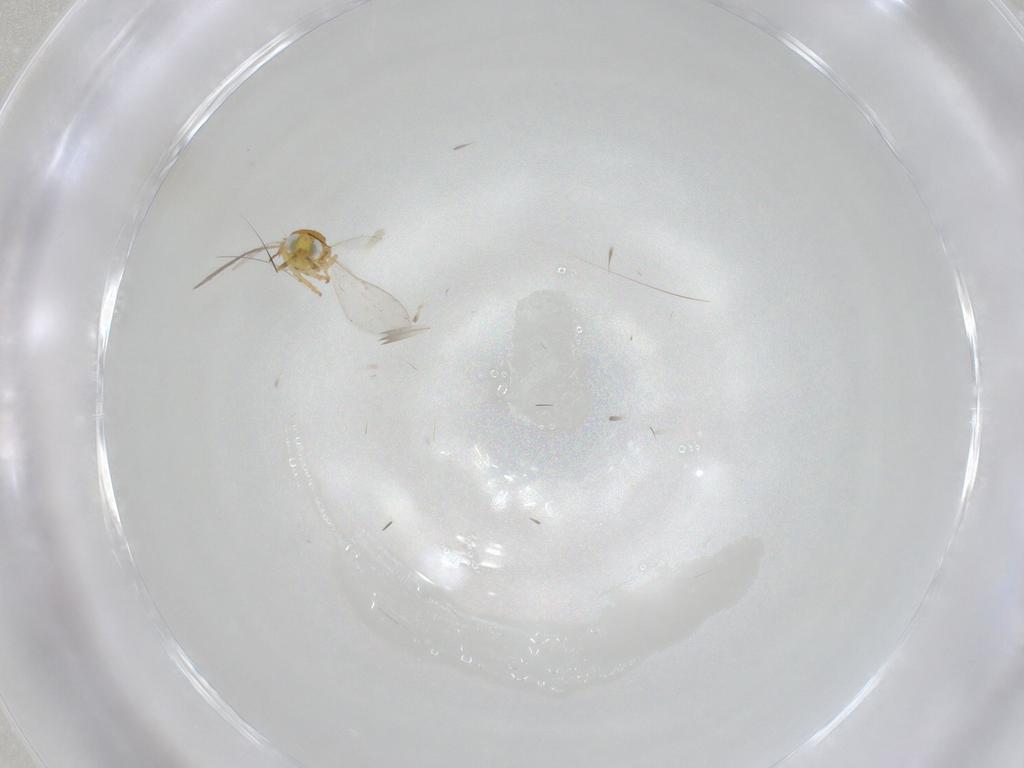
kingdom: Animalia
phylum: Arthropoda
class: Insecta
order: Hymenoptera
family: Encyrtidae
